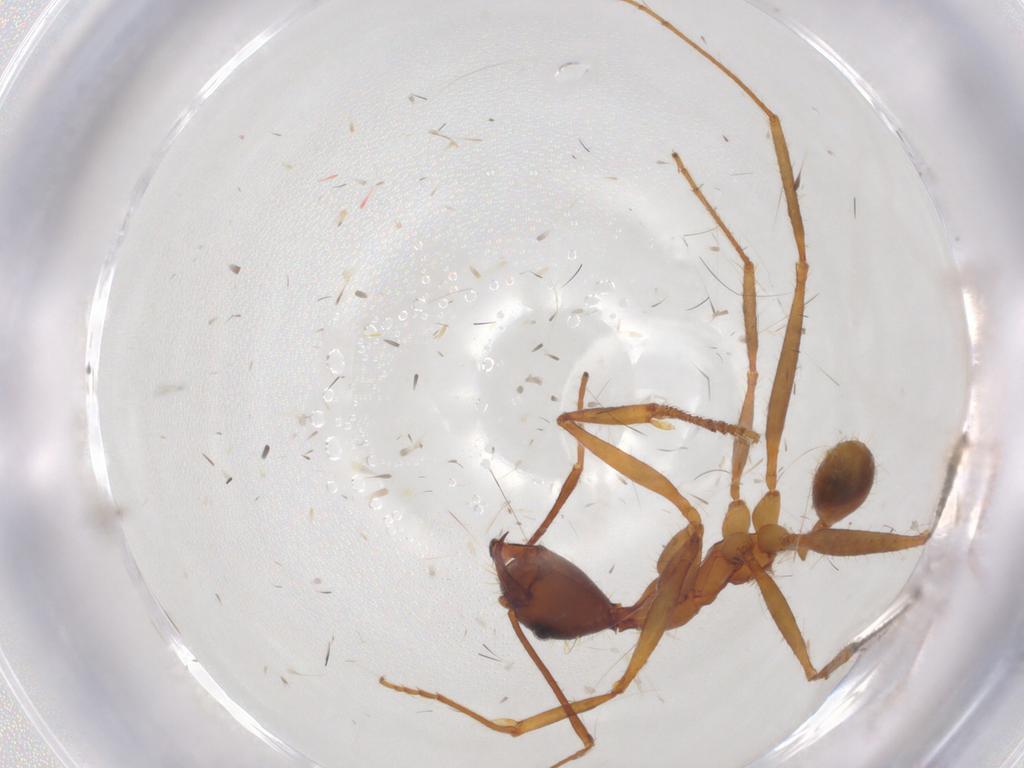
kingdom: Animalia
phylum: Arthropoda
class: Insecta
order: Hymenoptera
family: Formicidae
